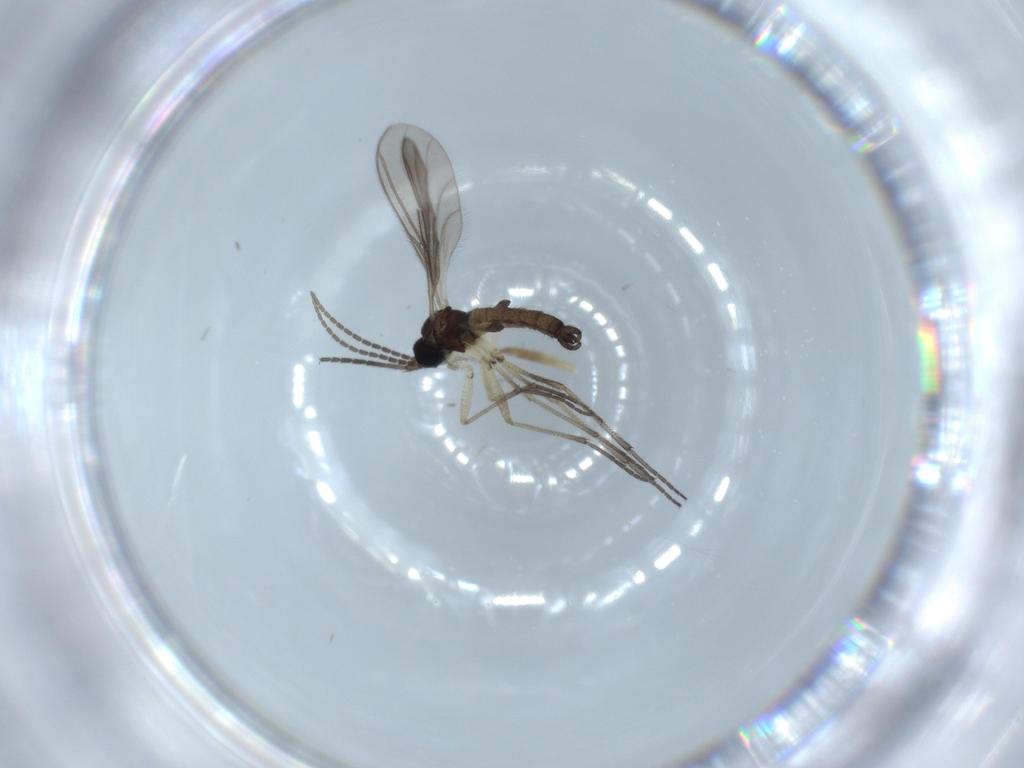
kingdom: Animalia
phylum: Arthropoda
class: Insecta
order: Diptera
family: Sciaridae
